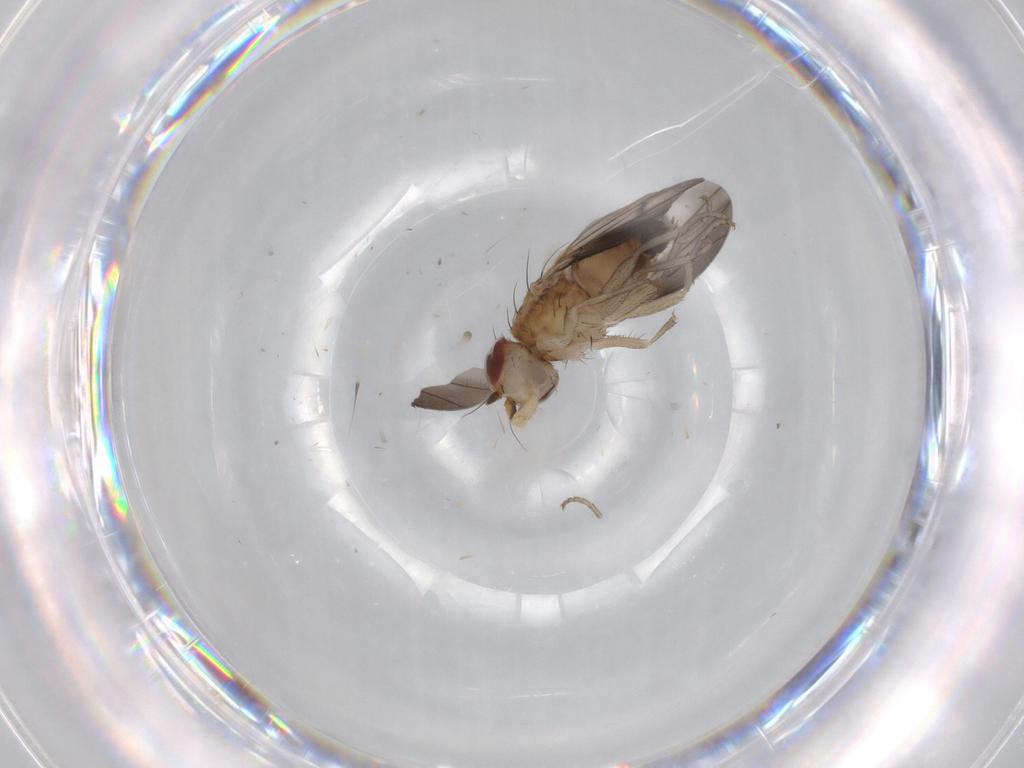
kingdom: Animalia
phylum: Arthropoda
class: Insecta
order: Diptera
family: Heleomyzidae
